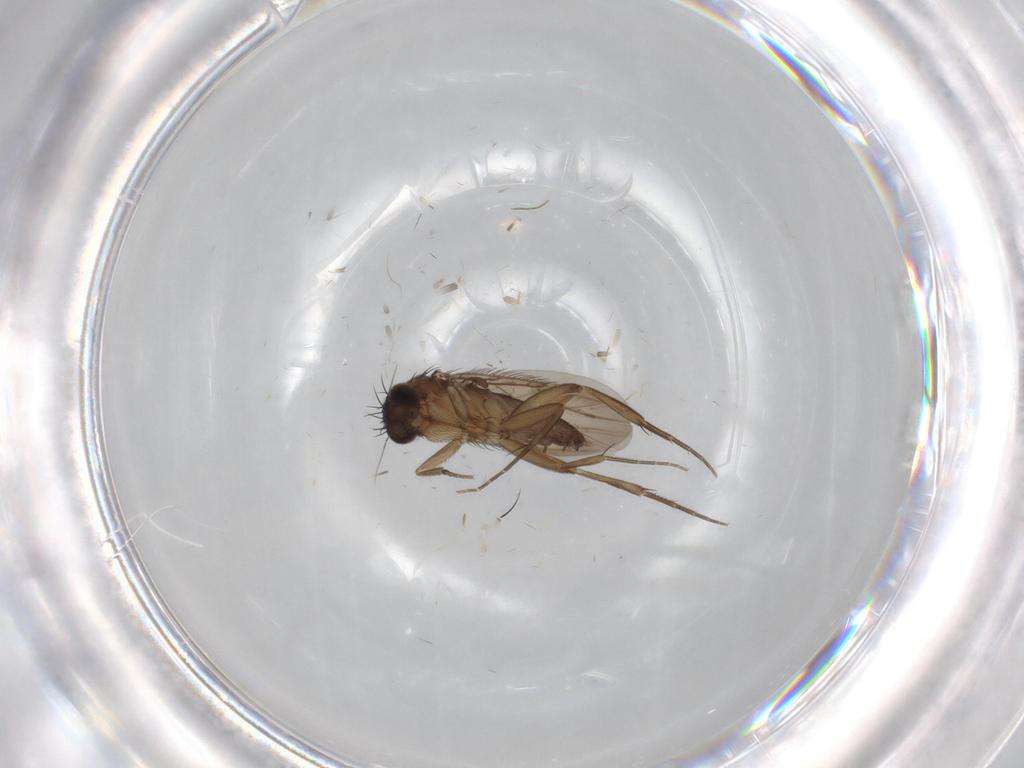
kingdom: Animalia
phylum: Arthropoda
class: Insecta
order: Diptera
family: Phoridae
